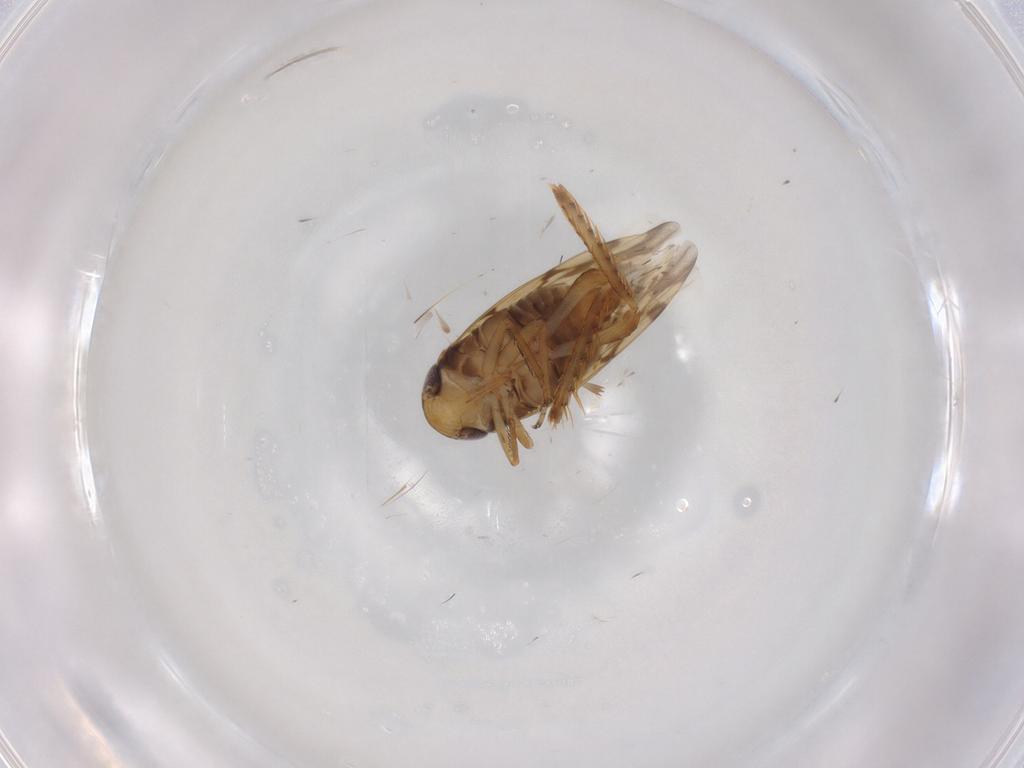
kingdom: Animalia
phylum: Arthropoda
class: Insecta
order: Hemiptera
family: Cicadellidae
